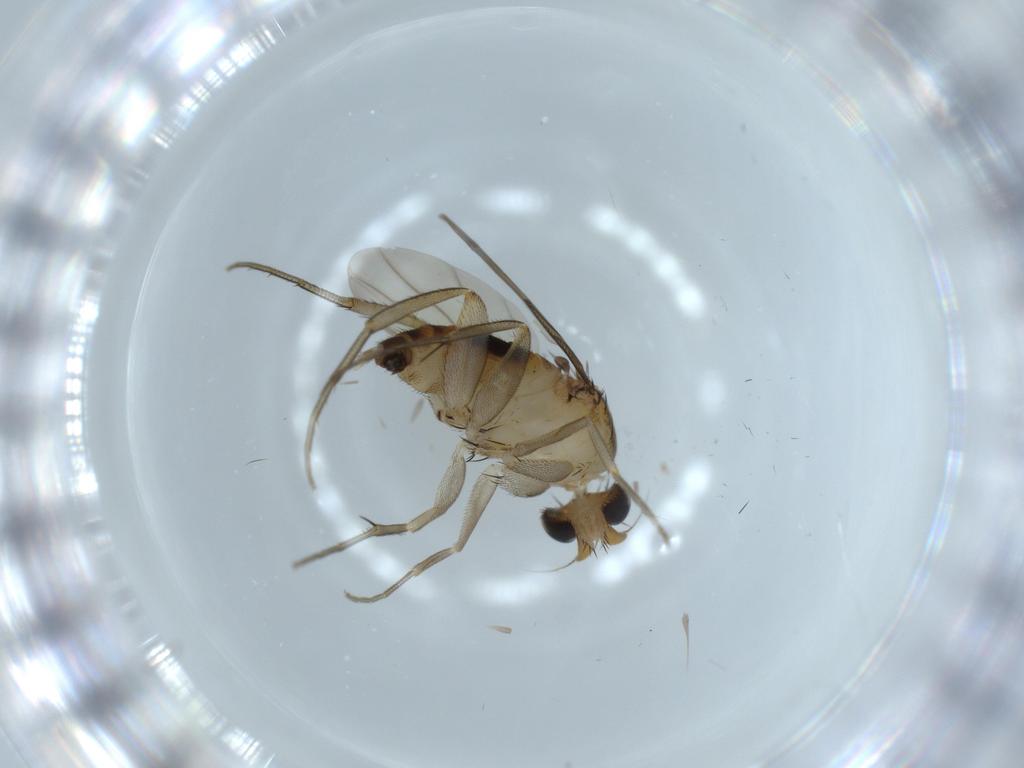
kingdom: Animalia
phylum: Arthropoda
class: Insecta
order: Diptera
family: Phoridae
